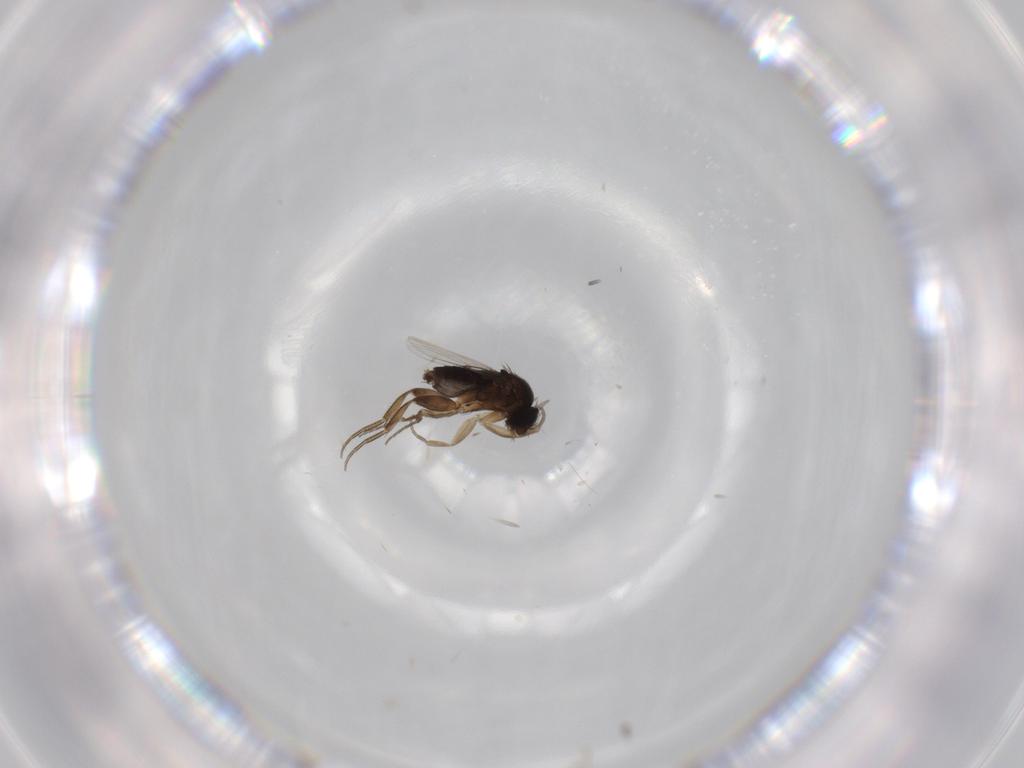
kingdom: Animalia
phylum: Arthropoda
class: Insecta
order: Diptera
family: Phoridae
